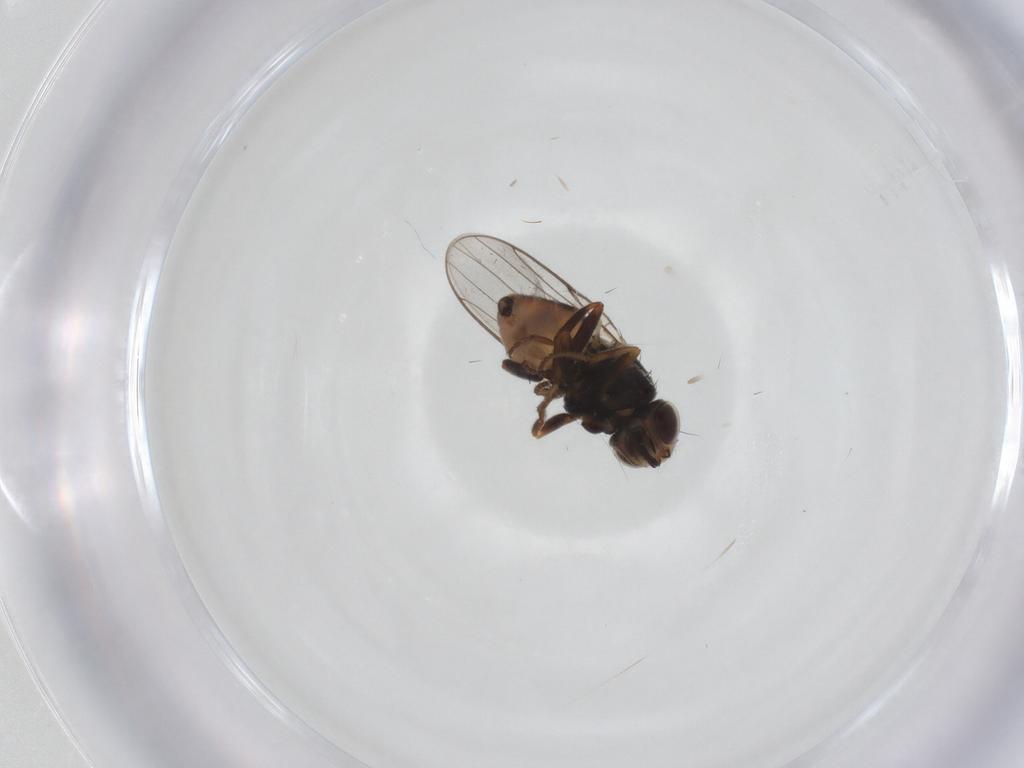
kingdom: Animalia
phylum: Arthropoda
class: Insecta
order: Diptera
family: Chloropidae
